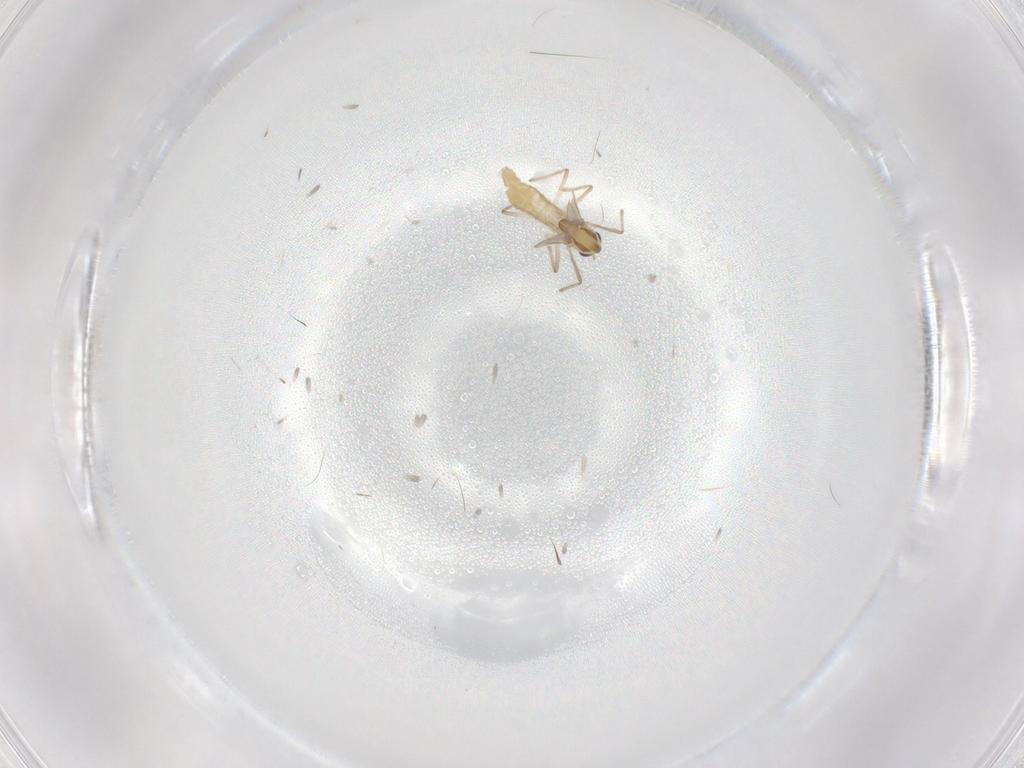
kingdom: Animalia
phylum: Arthropoda
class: Insecta
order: Diptera
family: Chironomidae
